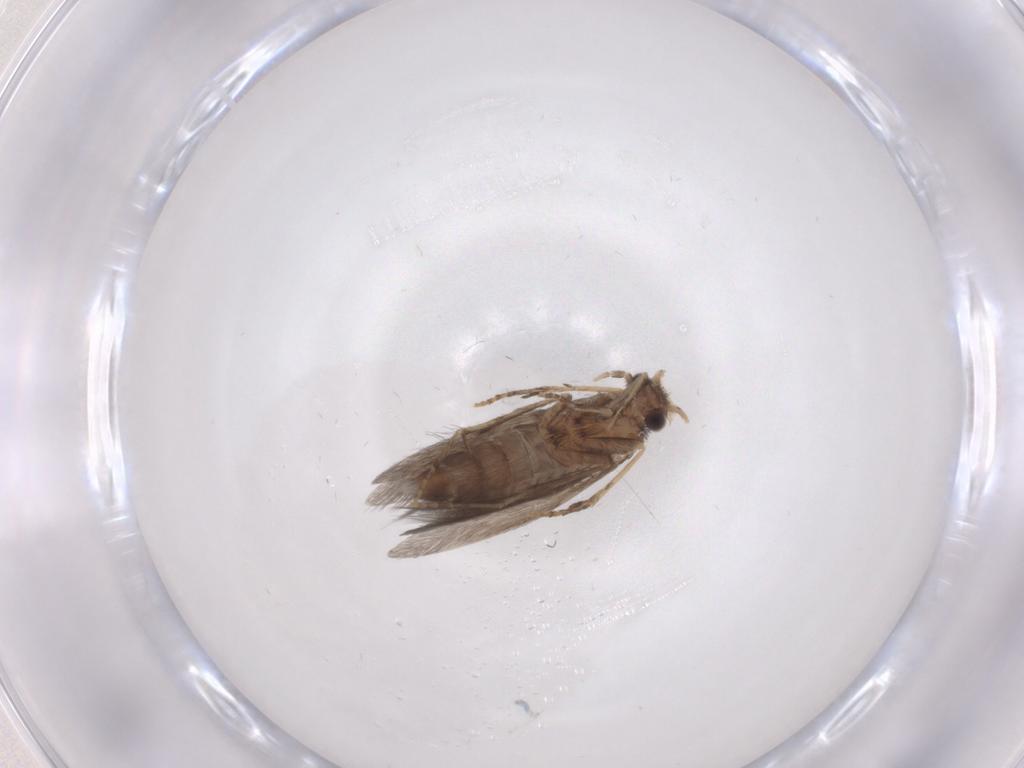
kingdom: Animalia
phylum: Arthropoda
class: Insecta
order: Trichoptera
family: Hydroptilidae
